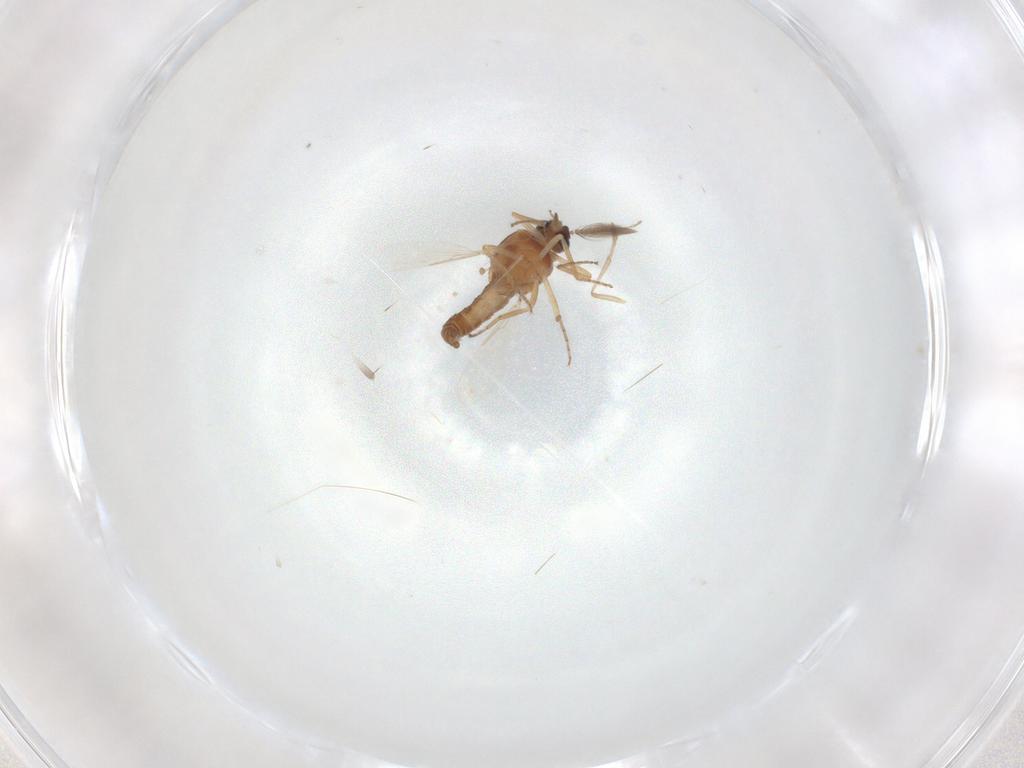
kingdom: Animalia
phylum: Arthropoda
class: Insecta
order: Diptera
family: Ceratopogonidae
